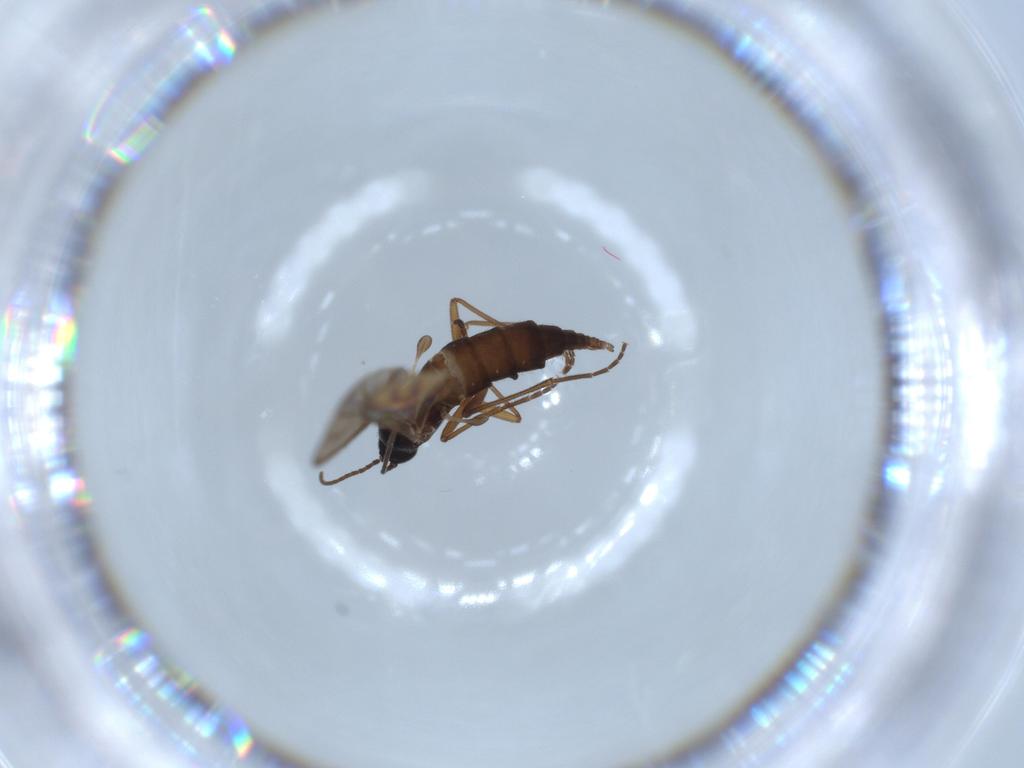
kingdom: Animalia
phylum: Arthropoda
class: Insecta
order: Diptera
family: Sciaridae
